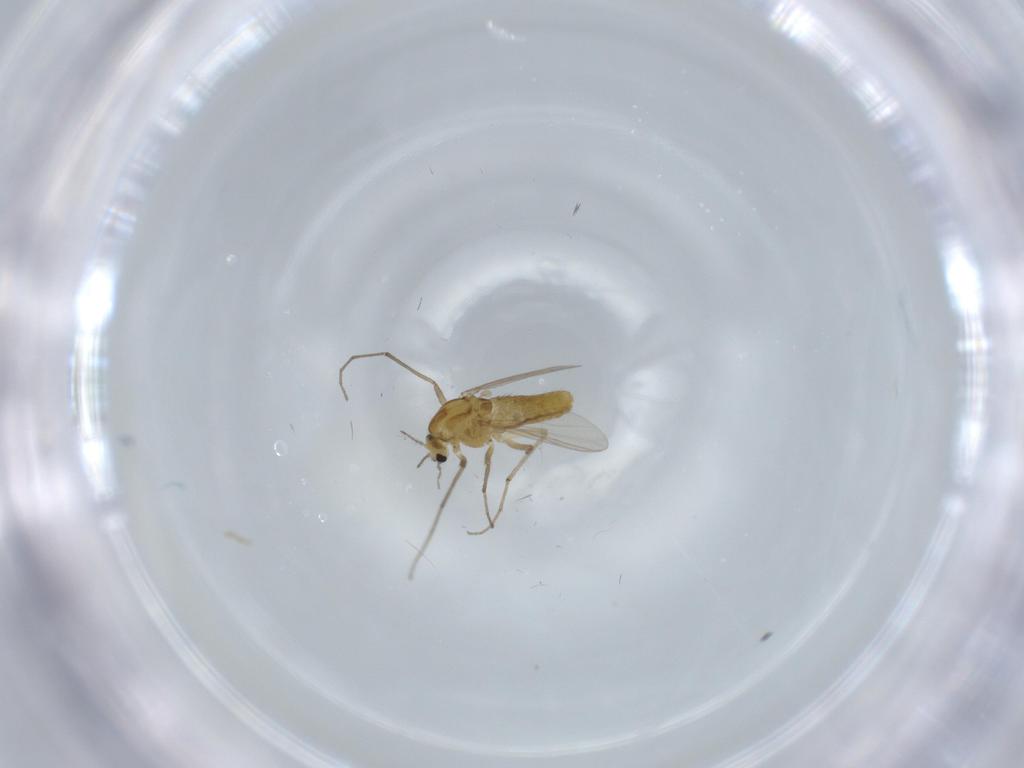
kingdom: Animalia
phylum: Arthropoda
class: Insecta
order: Diptera
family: Chironomidae
